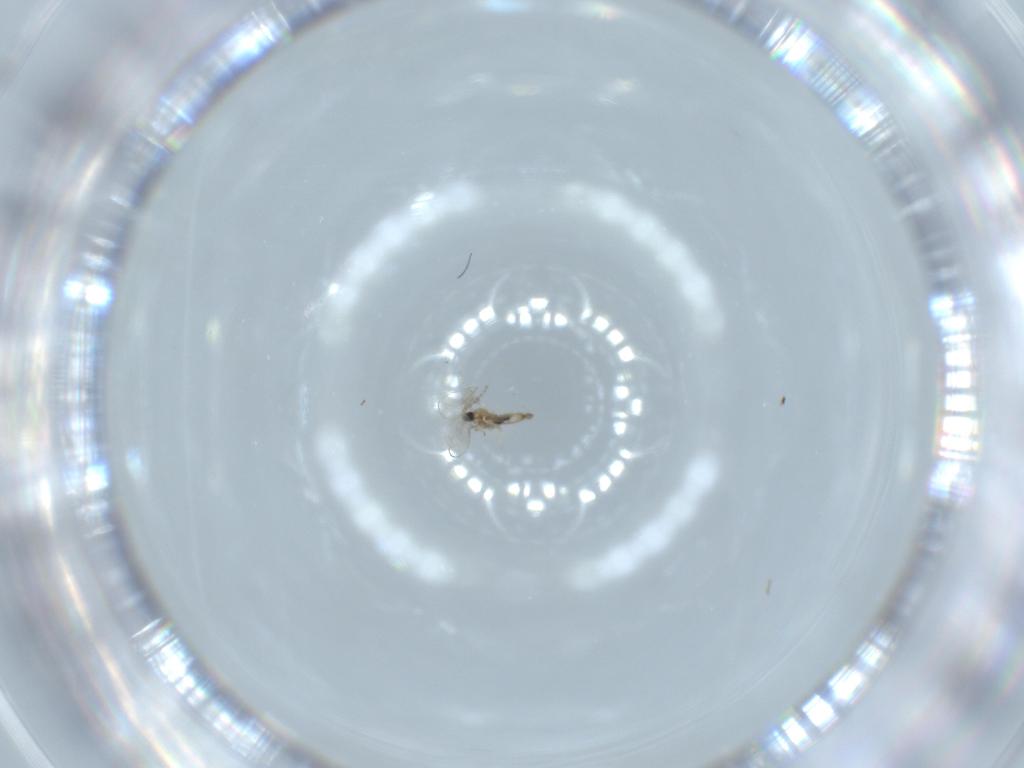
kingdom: Animalia
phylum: Arthropoda
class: Insecta
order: Diptera
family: Cecidomyiidae
